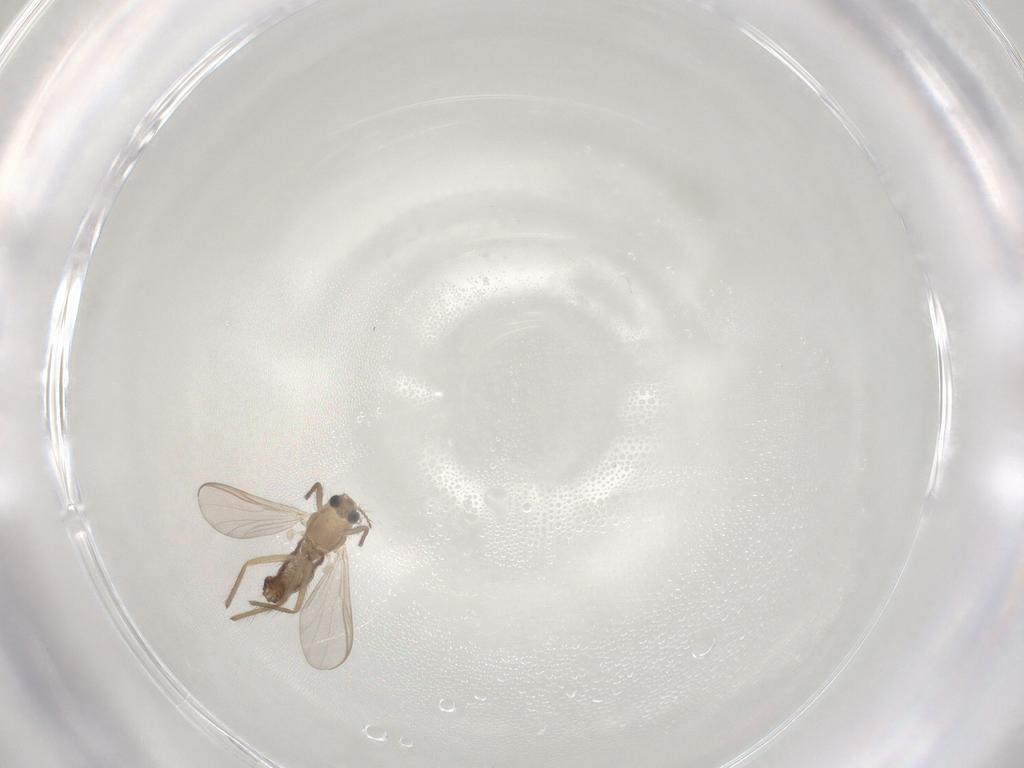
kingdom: Animalia
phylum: Arthropoda
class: Insecta
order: Diptera
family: Chironomidae
